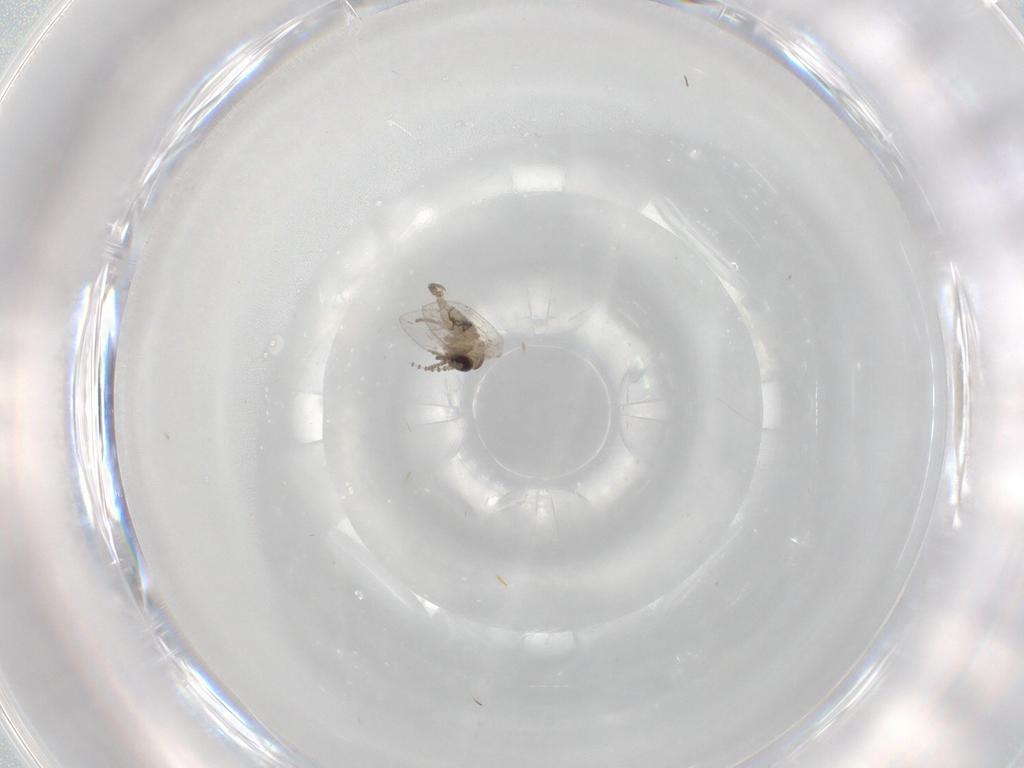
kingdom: Animalia
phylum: Arthropoda
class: Insecta
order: Diptera
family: Psychodidae
